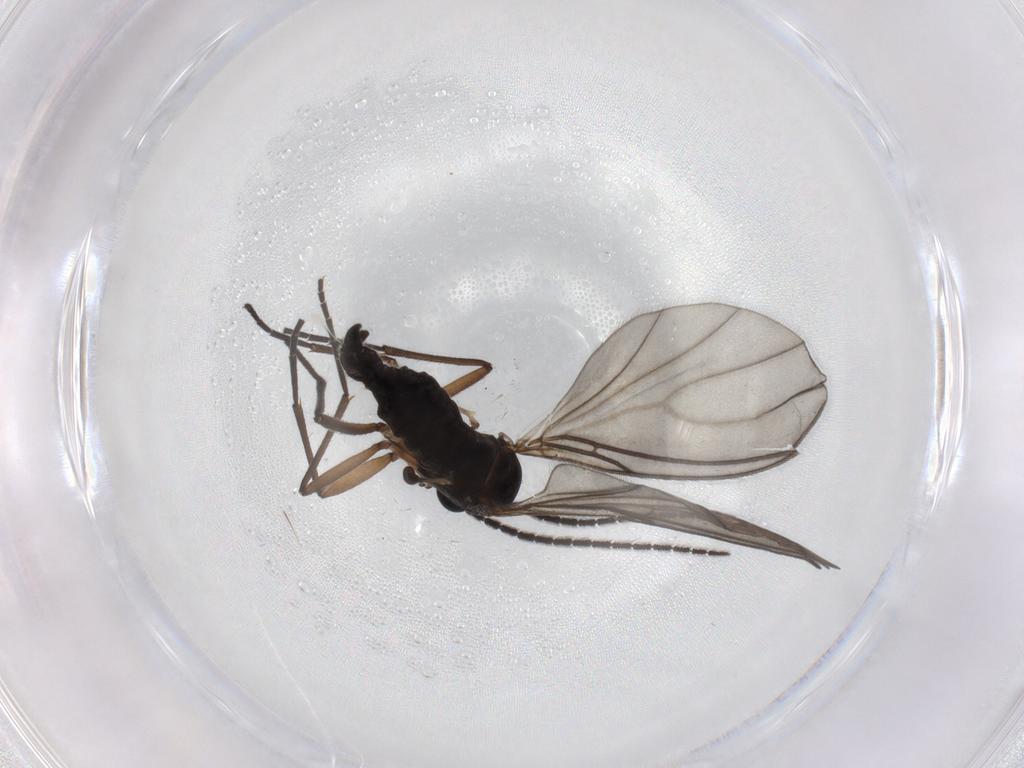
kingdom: Animalia
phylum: Arthropoda
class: Insecta
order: Diptera
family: Sciaridae
